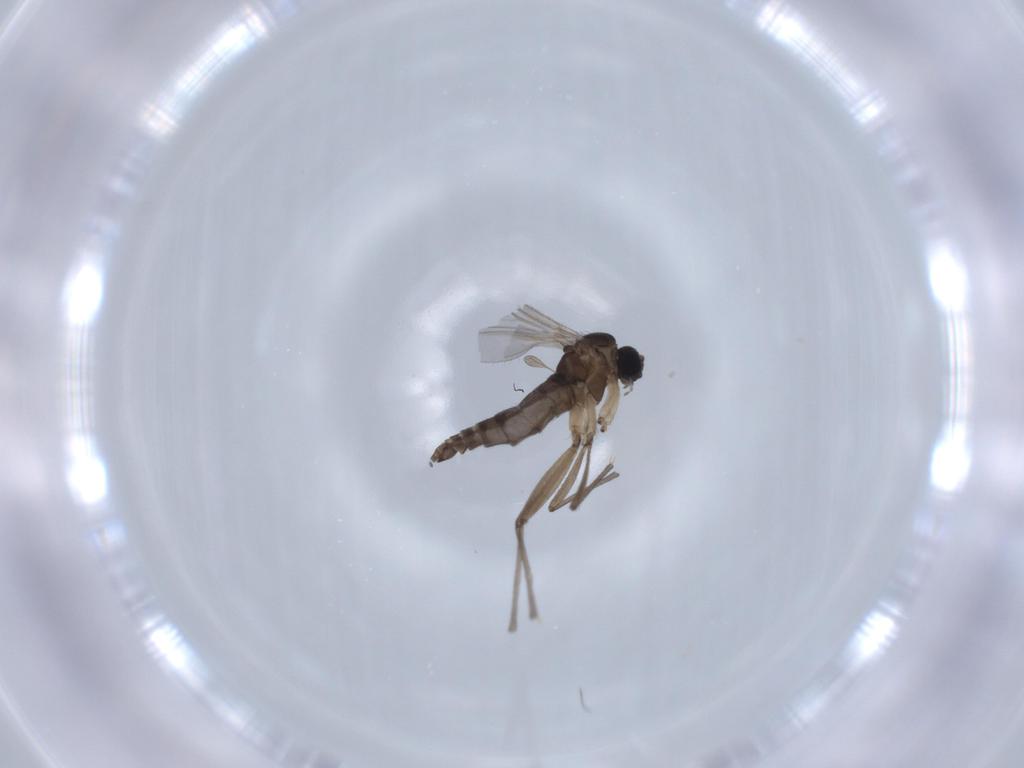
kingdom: Animalia
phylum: Arthropoda
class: Insecta
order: Diptera
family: Sciaridae
